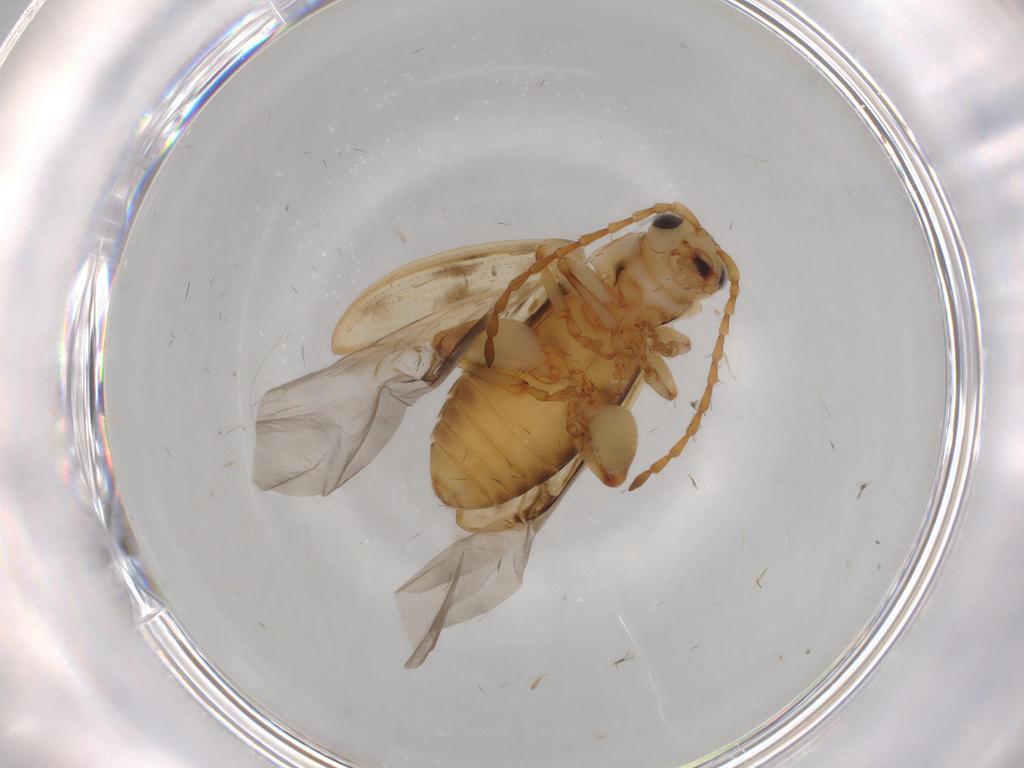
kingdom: Animalia
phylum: Arthropoda
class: Insecta
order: Coleoptera
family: Chrysomelidae
